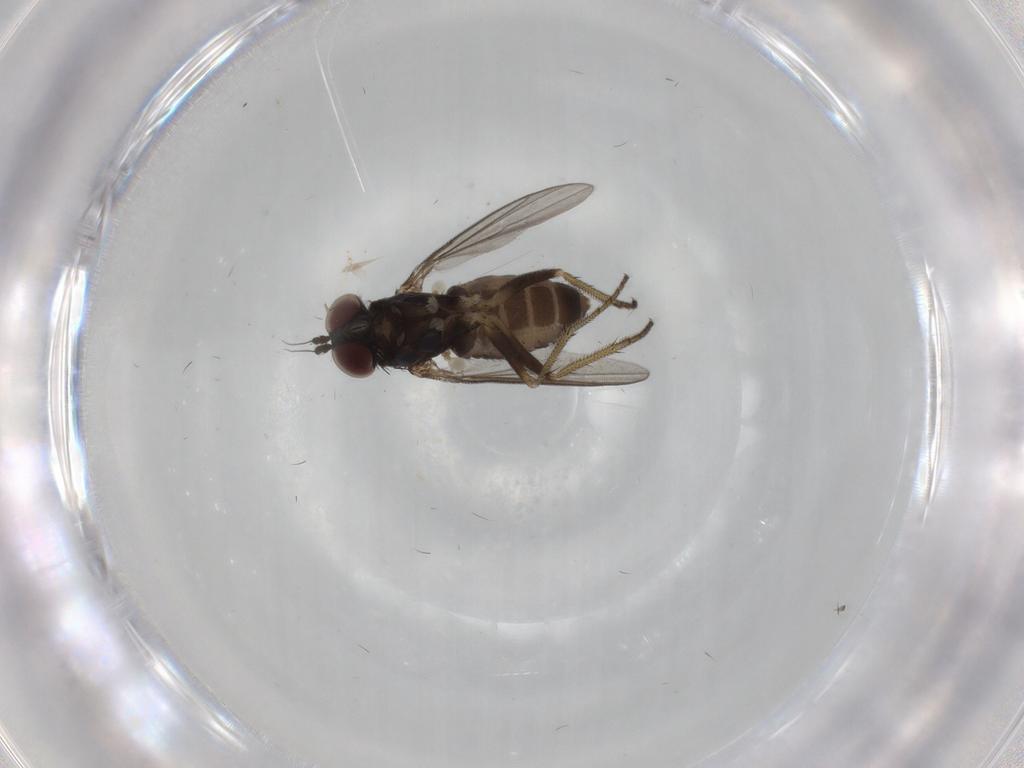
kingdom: Animalia
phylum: Arthropoda
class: Insecta
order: Diptera
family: Dolichopodidae
